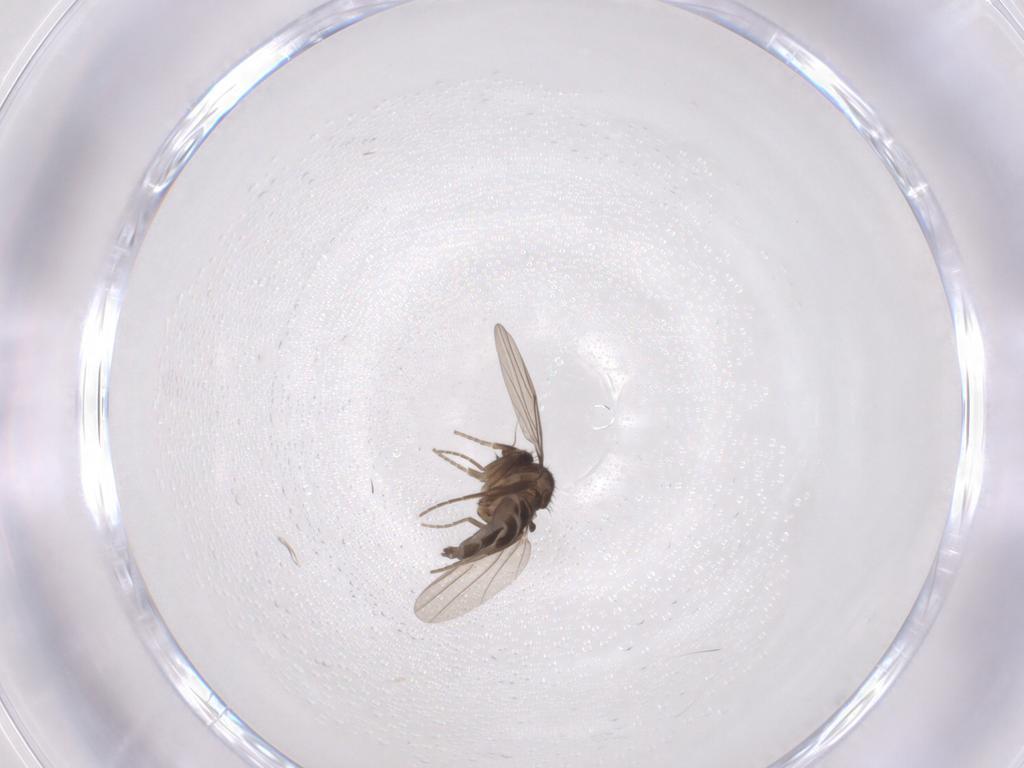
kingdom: Animalia
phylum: Arthropoda
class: Insecta
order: Diptera
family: Phoridae
